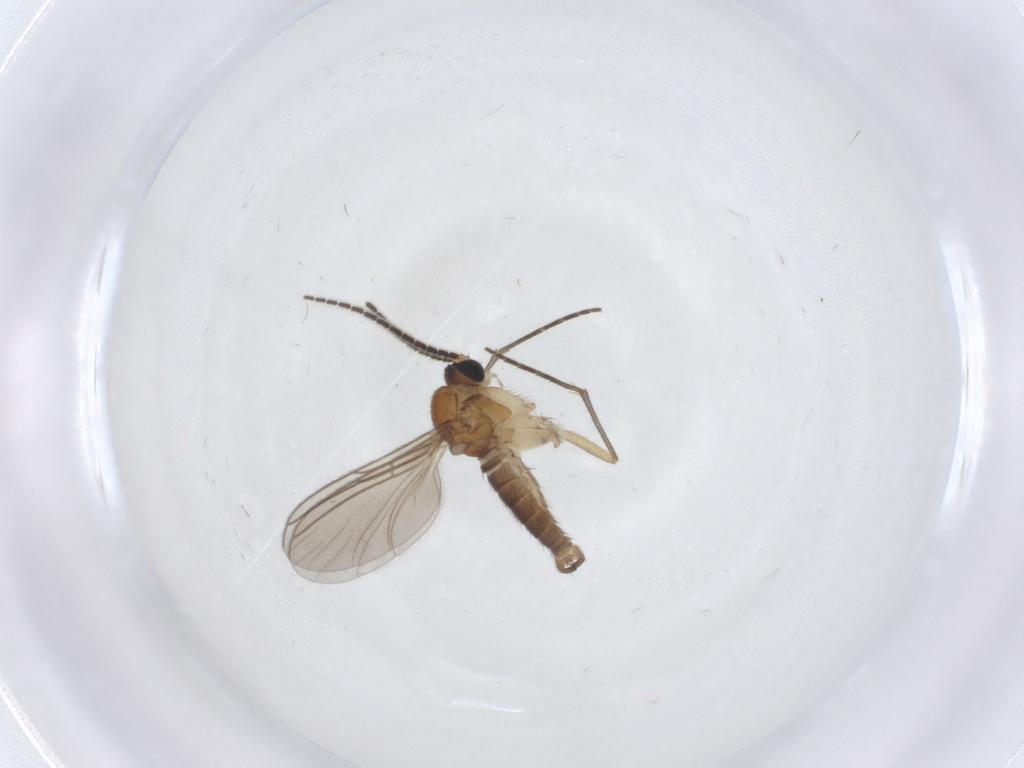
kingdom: Animalia
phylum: Arthropoda
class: Insecta
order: Diptera
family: Sciaridae
